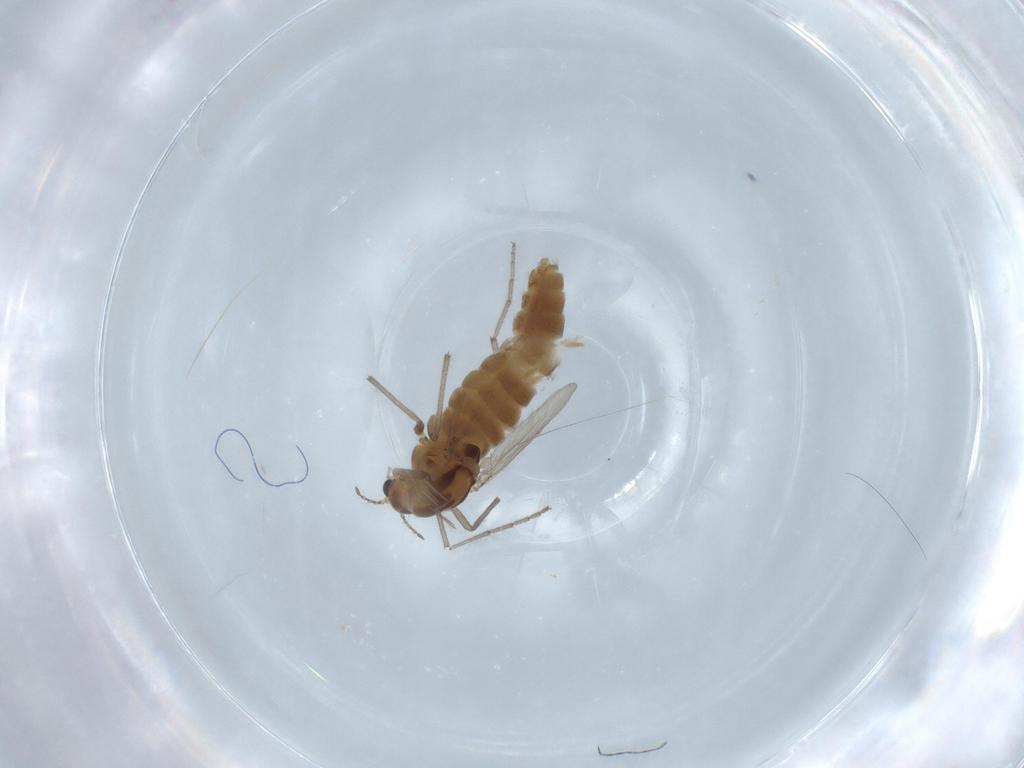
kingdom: Animalia
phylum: Arthropoda
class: Insecta
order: Diptera
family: Chironomidae
